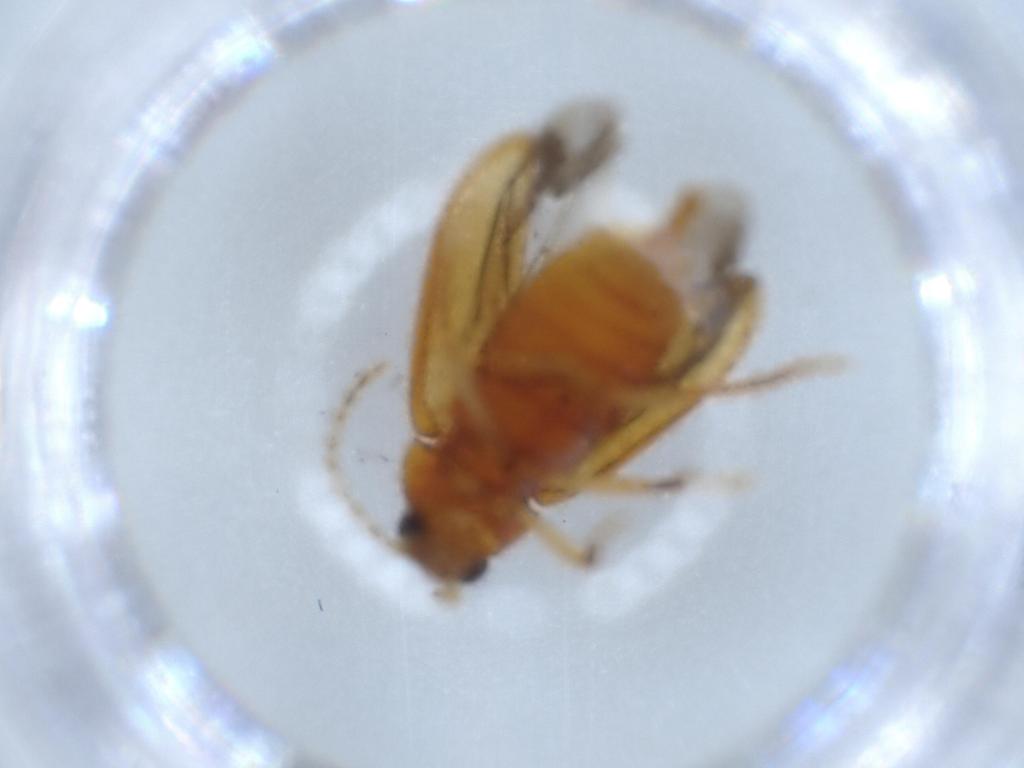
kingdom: Animalia
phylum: Arthropoda
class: Insecta
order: Coleoptera
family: Ptilodactylidae
